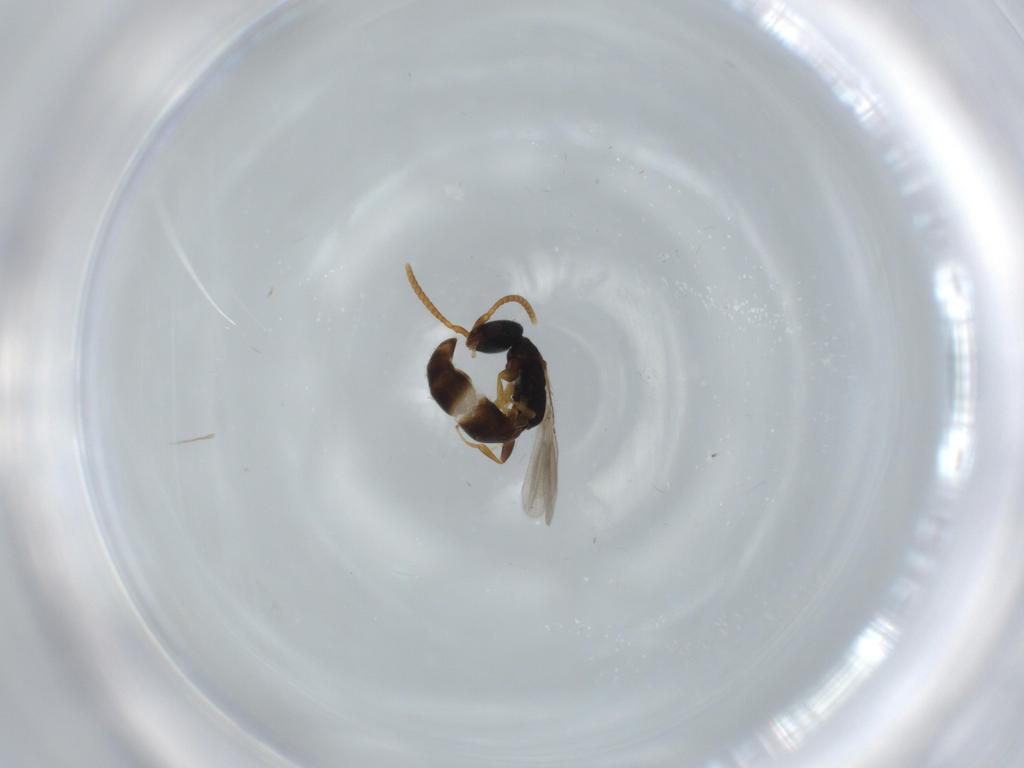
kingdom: Animalia
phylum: Arthropoda
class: Insecta
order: Hymenoptera
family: Bethylidae
